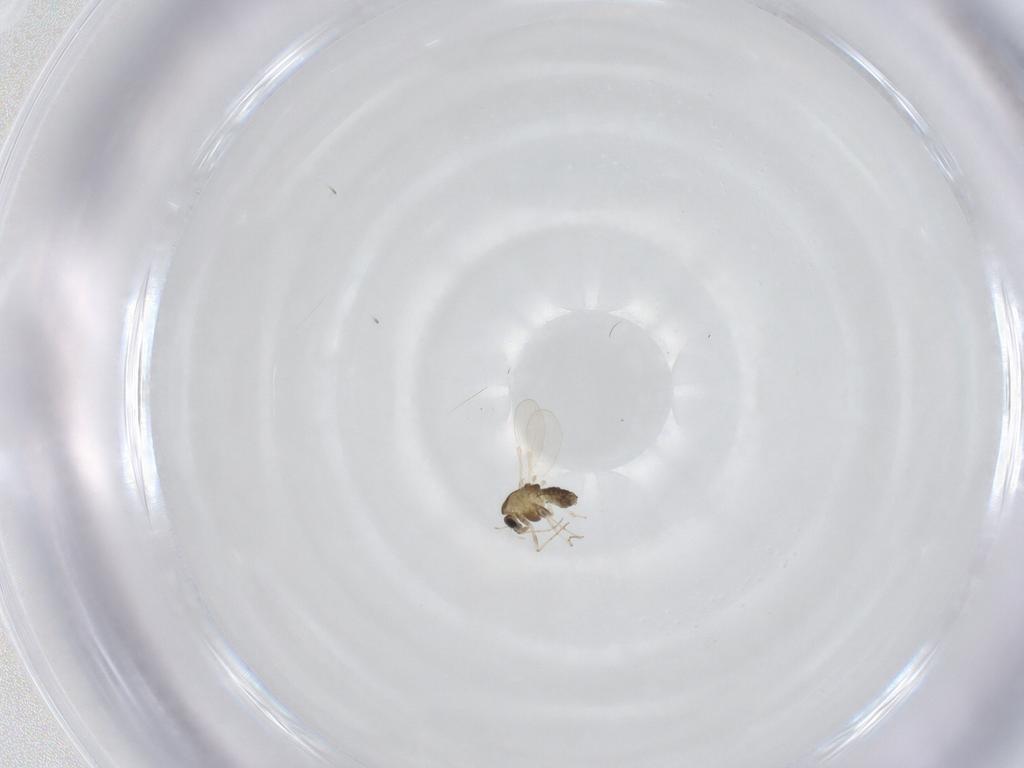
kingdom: Animalia
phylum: Arthropoda
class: Insecta
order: Diptera
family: Chironomidae
